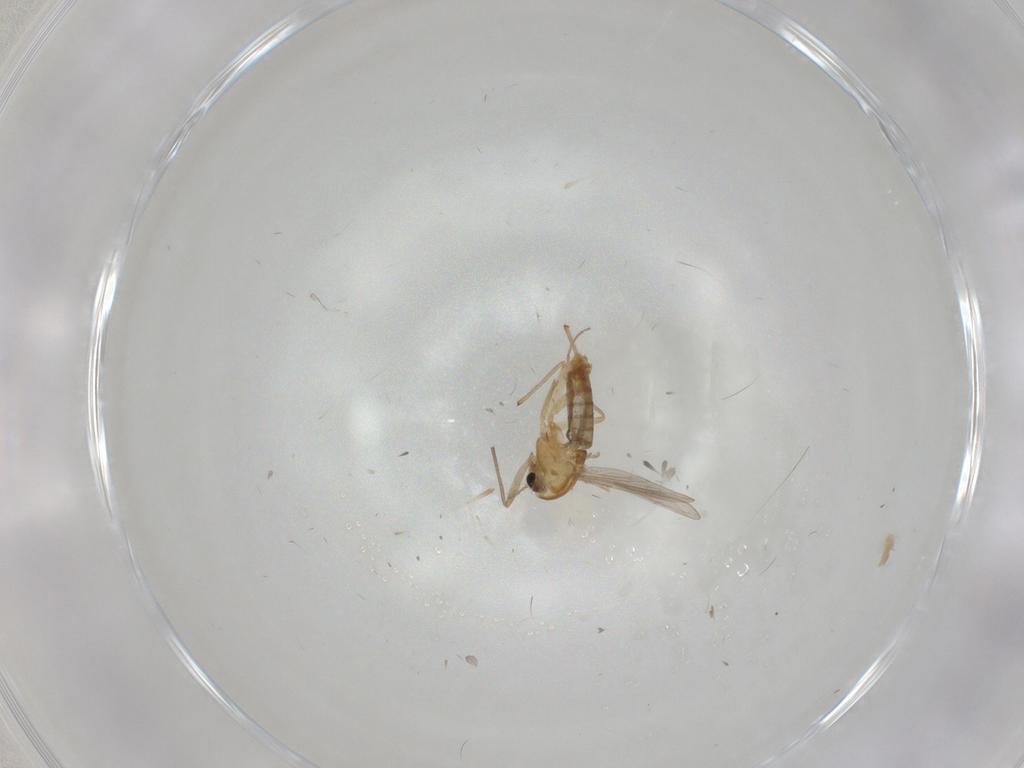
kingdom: Animalia
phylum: Arthropoda
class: Insecta
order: Diptera
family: Chironomidae
